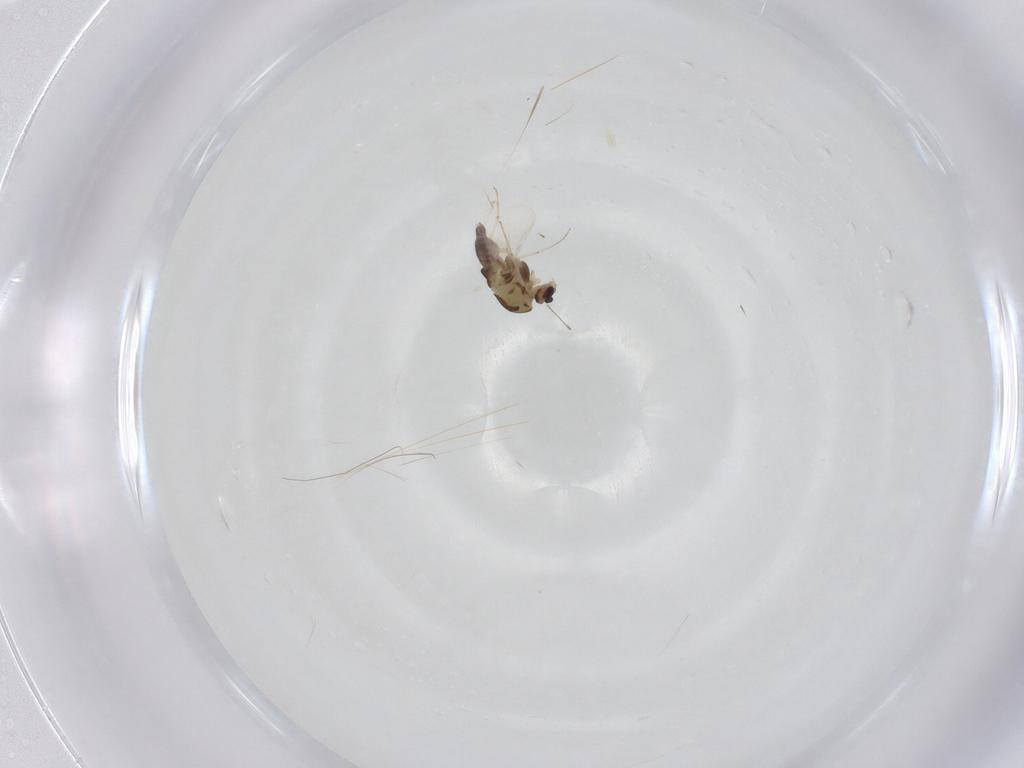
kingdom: Animalia
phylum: Arthropoda
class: Insecta
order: Diptera
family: Chironomidae
